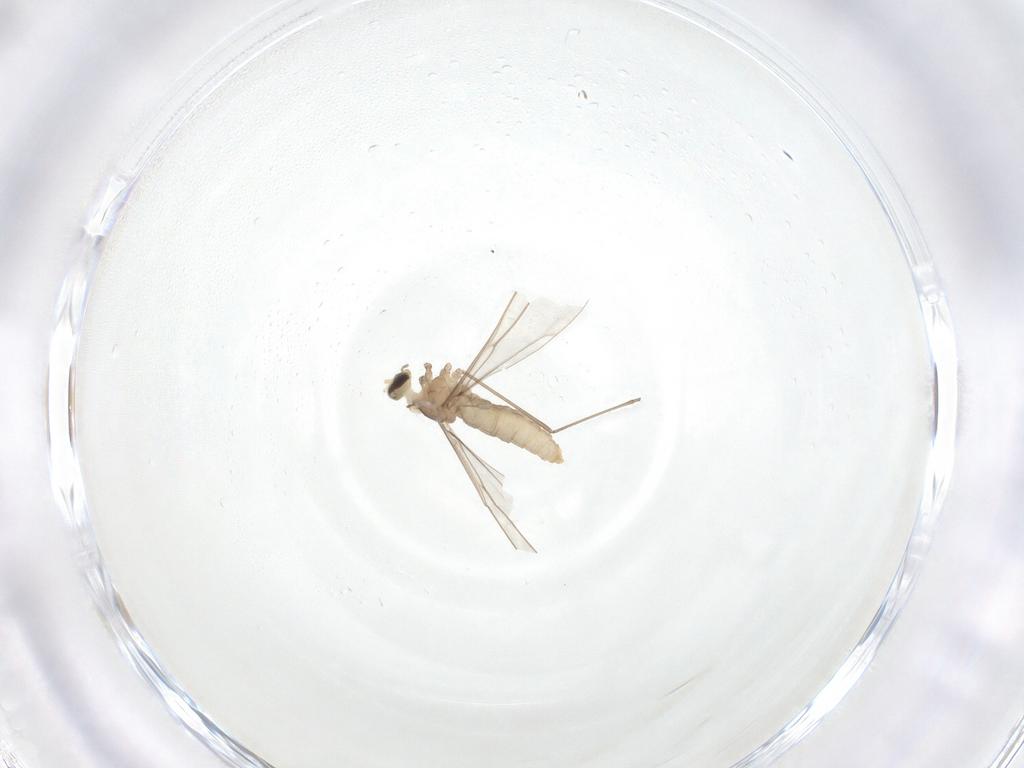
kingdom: Animalia
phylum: Arthropoda
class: Insecta
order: Diptera
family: Cecidomyiidae
